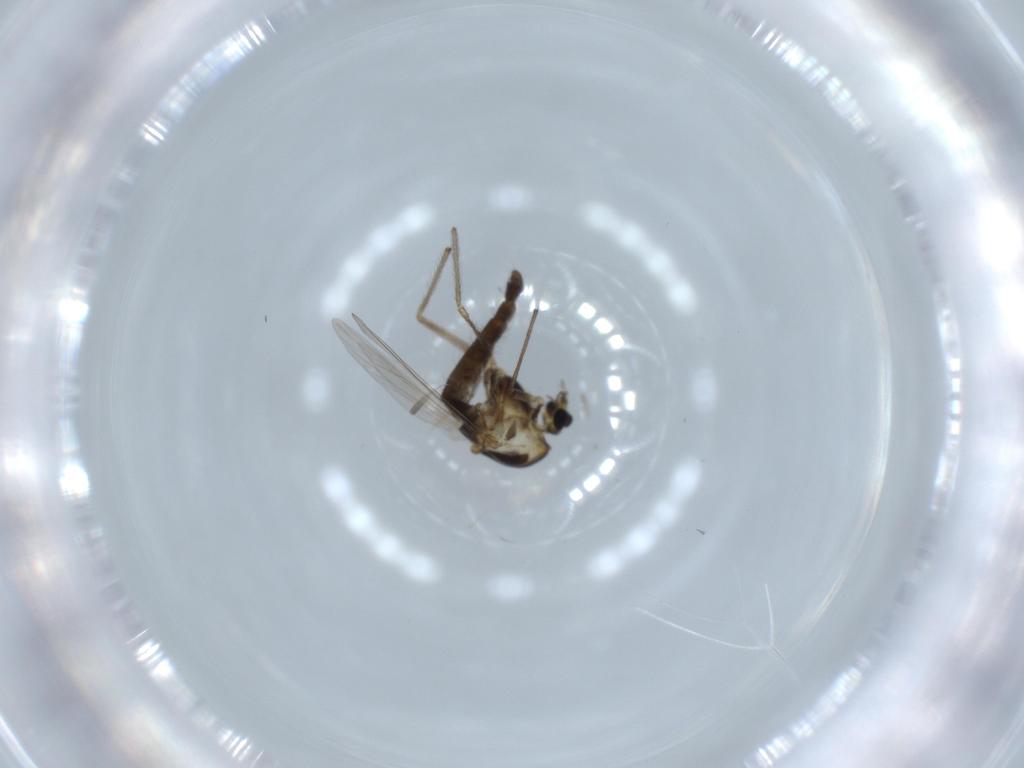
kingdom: Animalia
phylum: Arthropoda
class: Insecta
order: Diptera
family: Chironomidae
